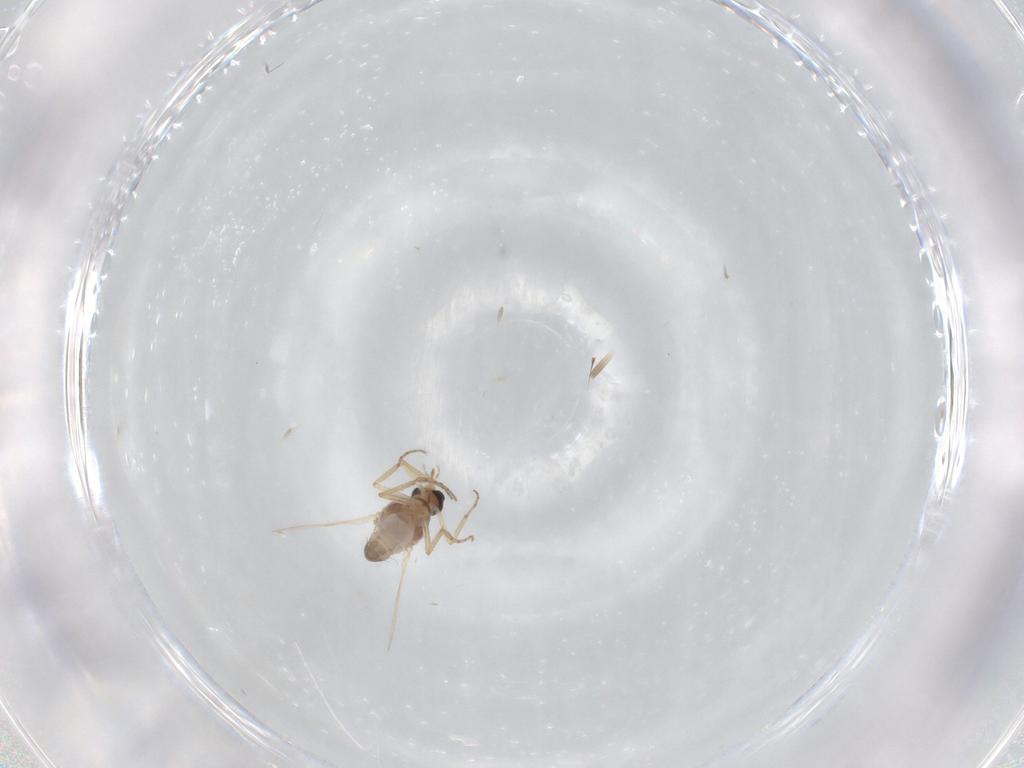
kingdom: Animalia
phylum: Arthropoda
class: Insecta
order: Diptera
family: Ceratopogonidae
